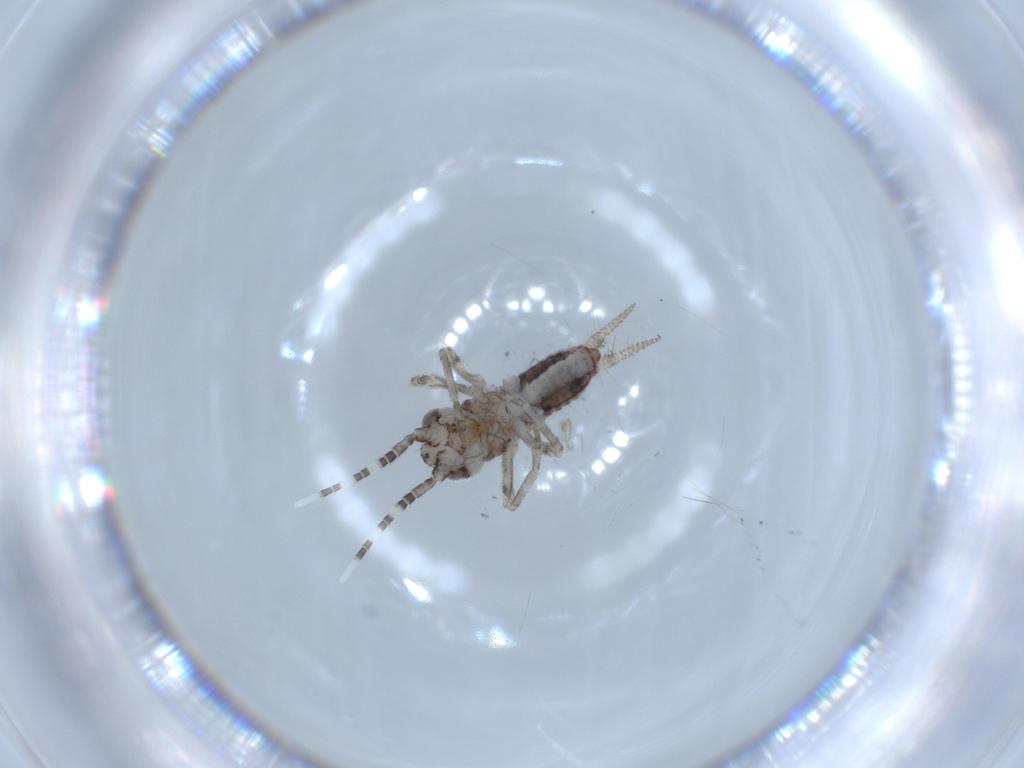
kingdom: Animalia
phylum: Arthropoda
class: Insecta
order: Orthoptera
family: Trigonidiidae
